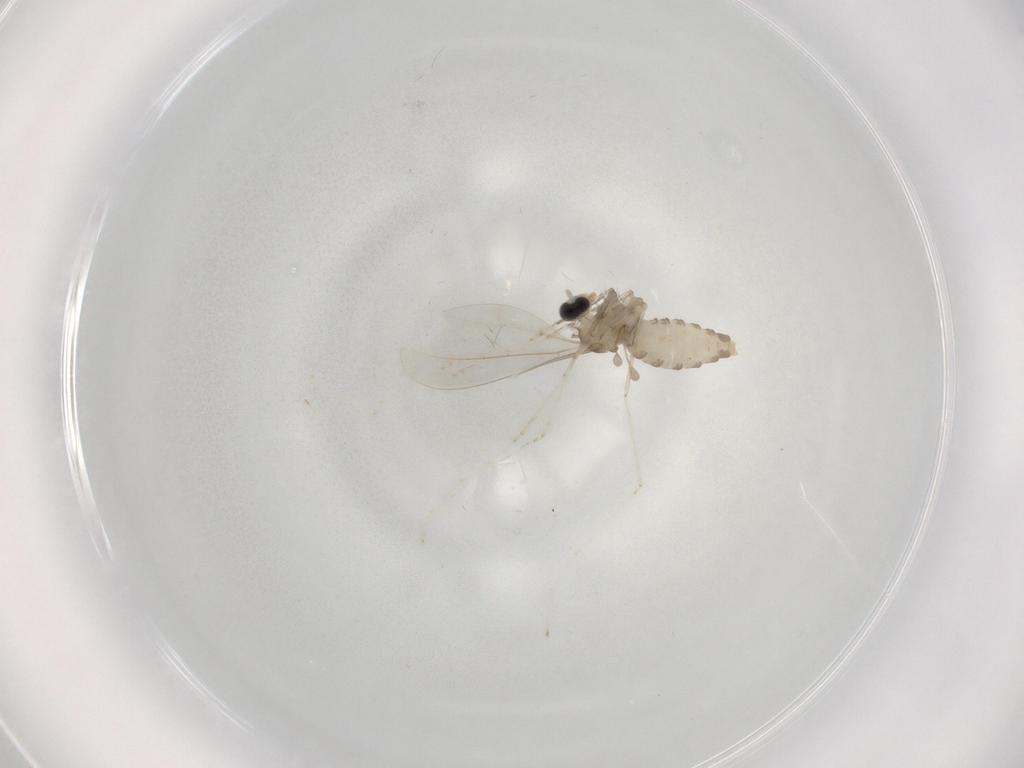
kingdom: Animalia
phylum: Arthropoda
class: Insecta
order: Diptera
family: Cecidomyiidae
